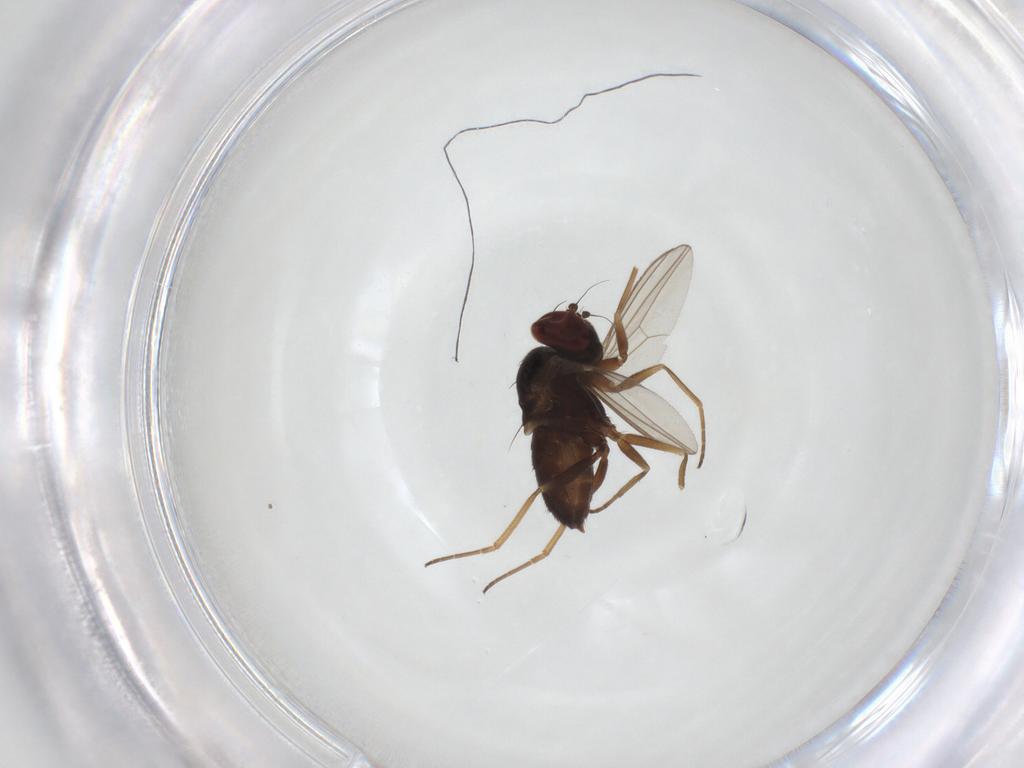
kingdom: Animalia
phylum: Arthropoda
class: Insecta
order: Diptera
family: Dolichopodidae
